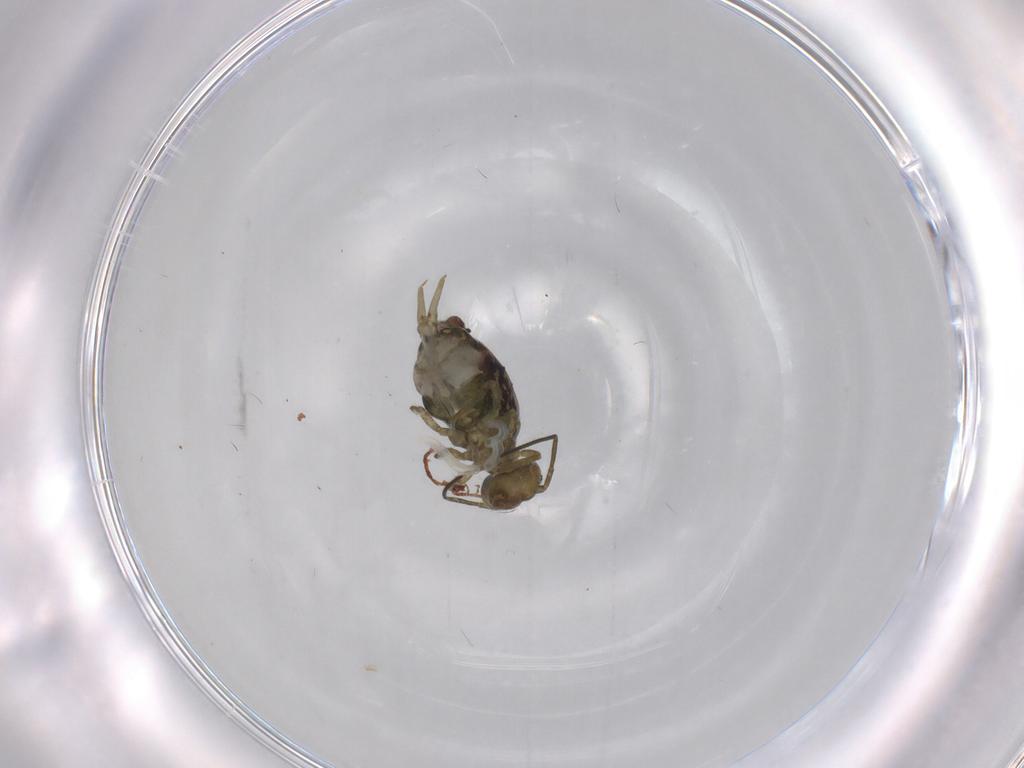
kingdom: Animalia
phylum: Arthropoda
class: Collembola
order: Symphypleona
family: Sminthuridae
